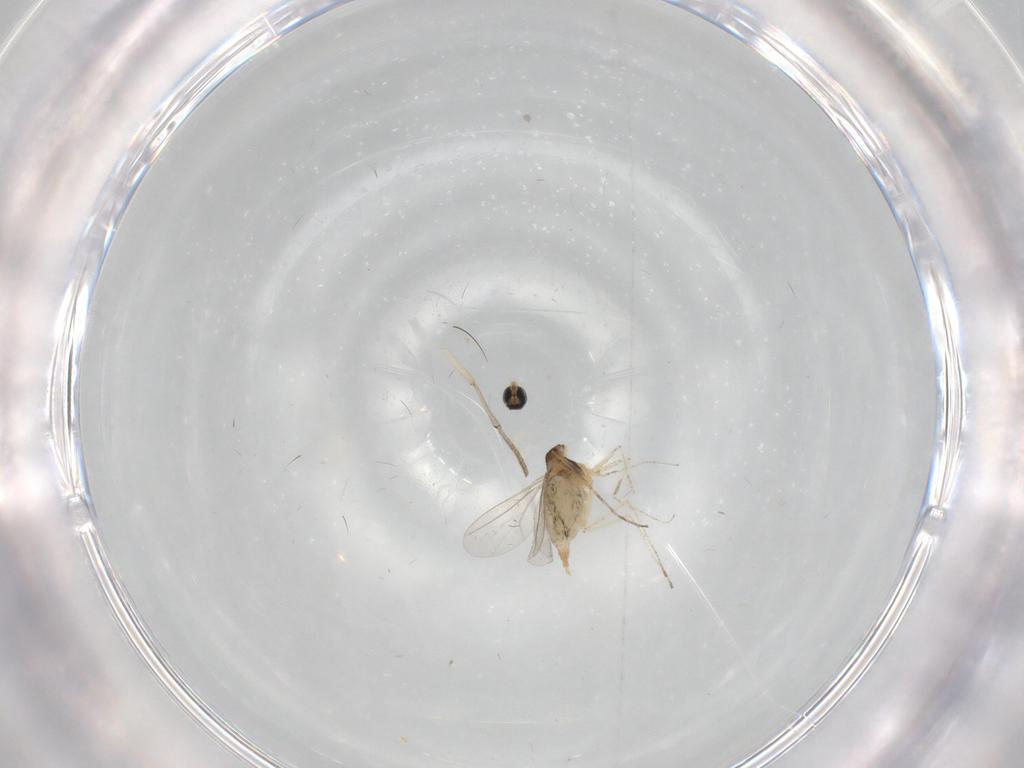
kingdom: Animalia
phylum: Arthropoda
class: Insecta
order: Diptera
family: Cecidomyiidae
